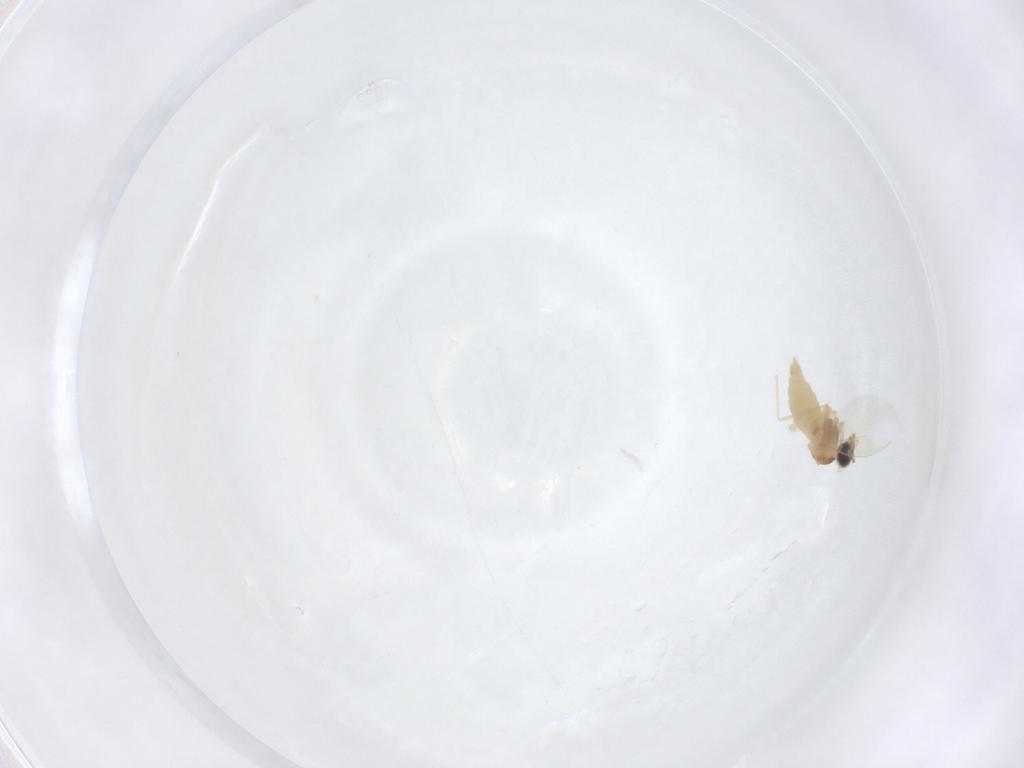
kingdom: Animalia
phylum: Arthropoda
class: Insecta
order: Diptera
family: Cecidomyiidae
